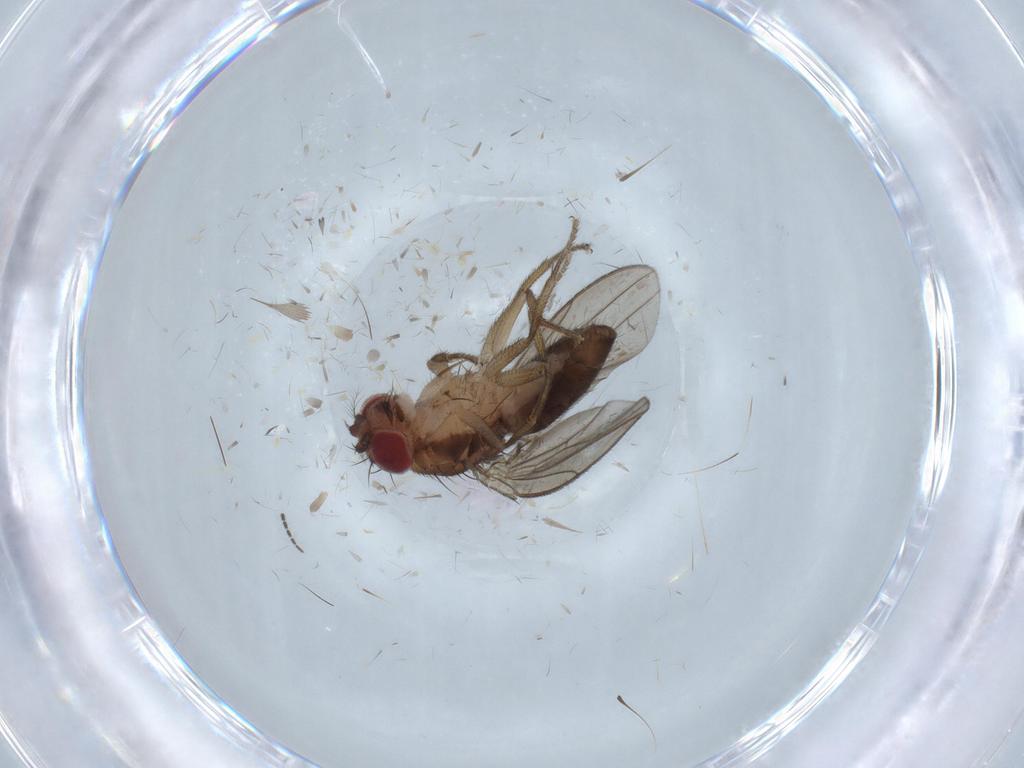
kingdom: Animalia
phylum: Arthropoda
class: Insecta
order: Diptera
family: Drosophilidae
